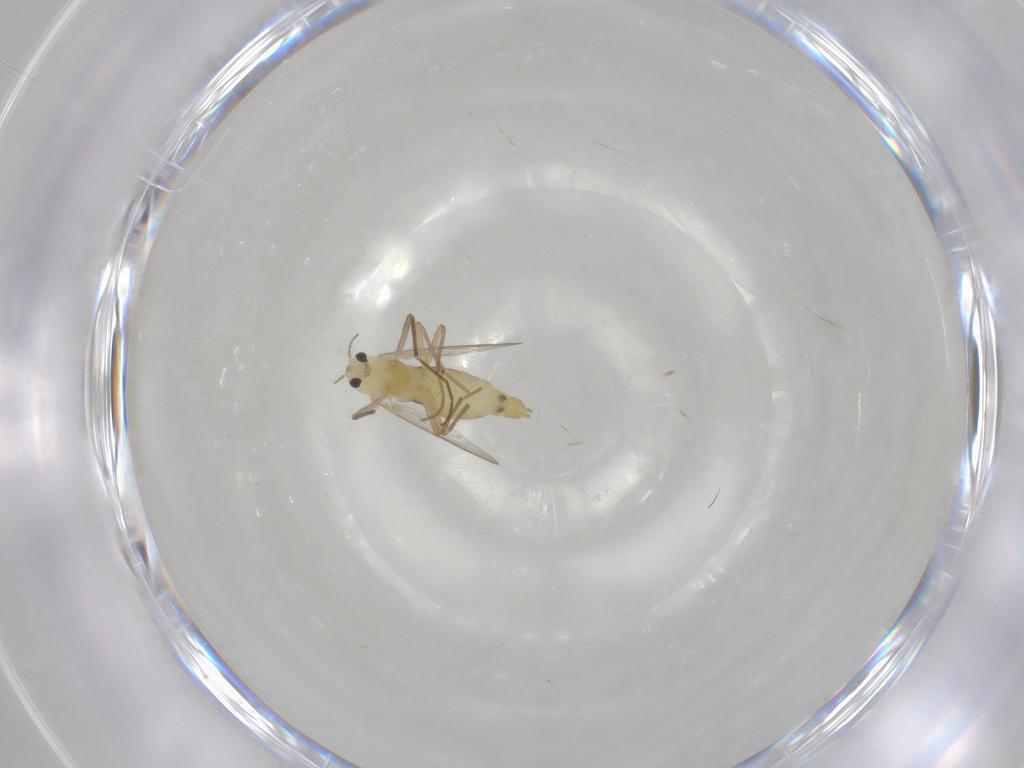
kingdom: Animalia
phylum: Arthropoda
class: Insecta
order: Diptera
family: Chironomidae
